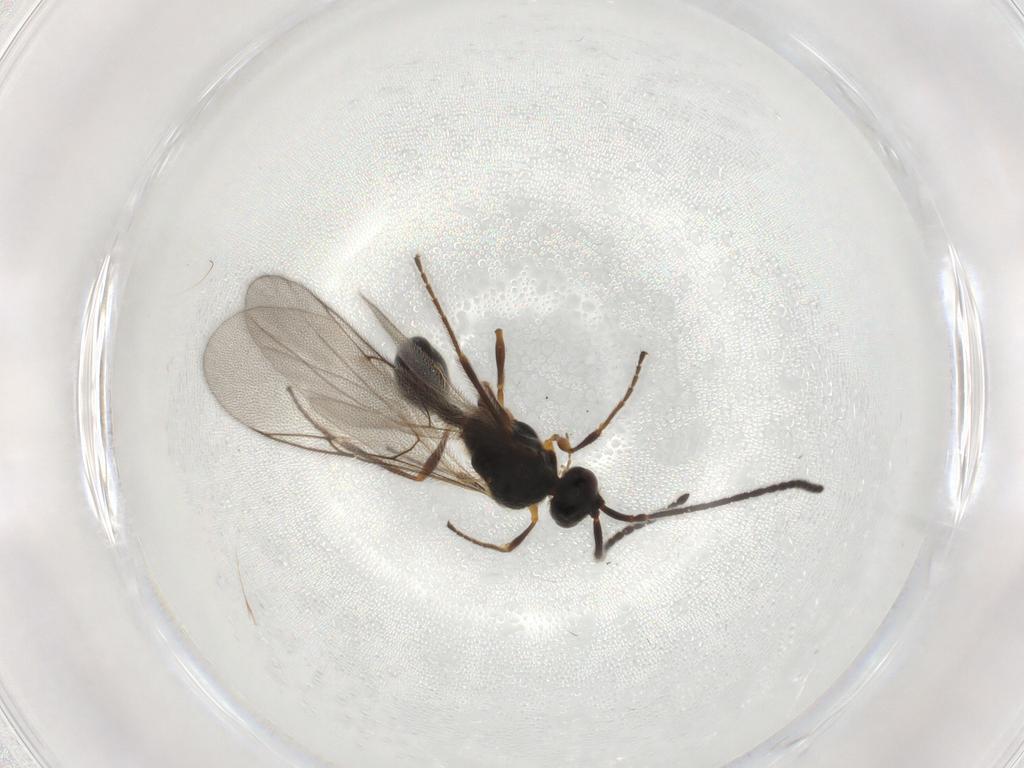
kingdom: Animalia
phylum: Arthropoda
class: Insecta
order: Hymenoptera
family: Diapriidae
